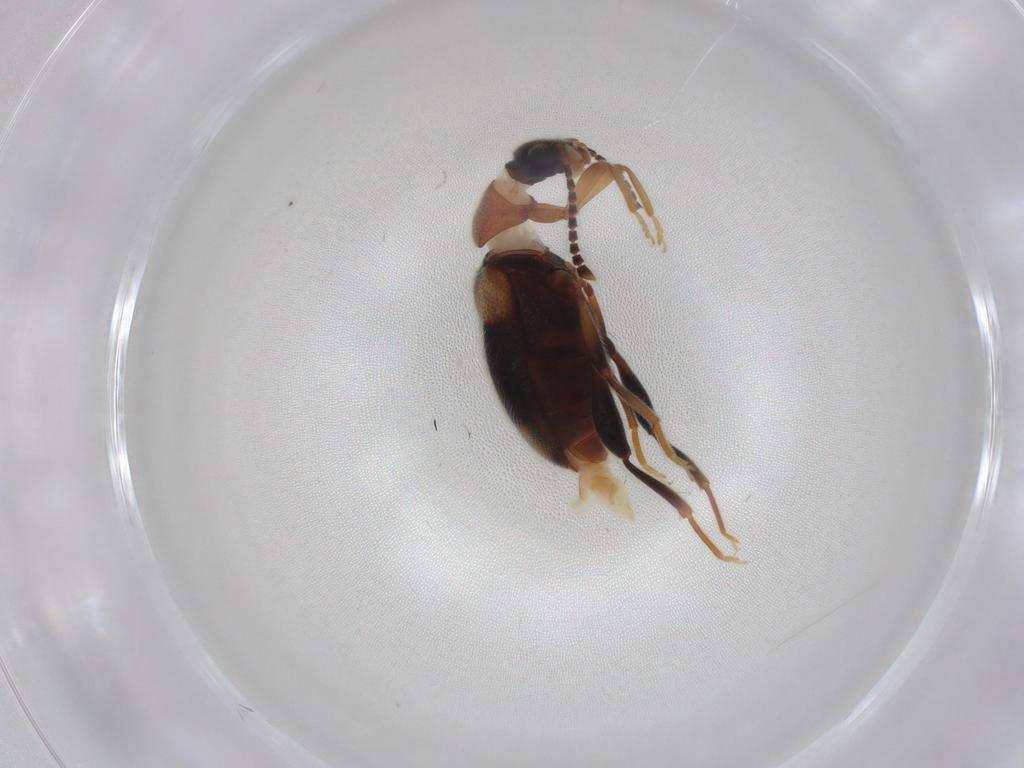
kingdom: Animalia
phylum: Arthropoda
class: Insecta
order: Coleoptera
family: Aderidae
